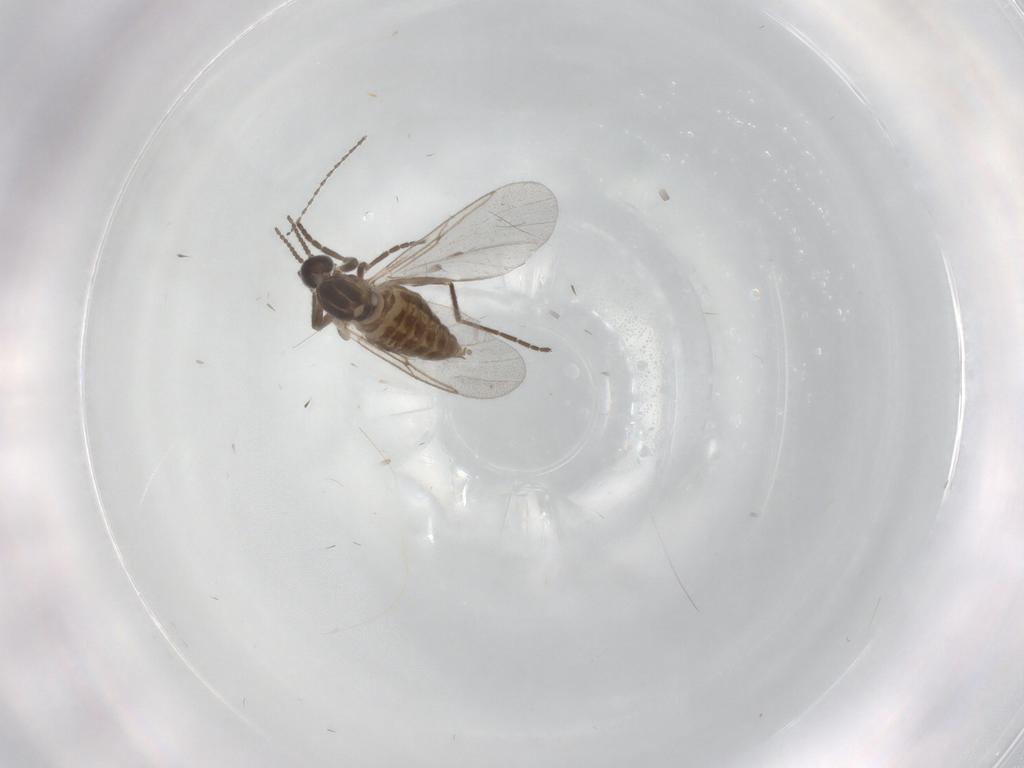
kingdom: Animalia
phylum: Arthropoda
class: Insecta
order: Diptera
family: Cecidomyiidae
